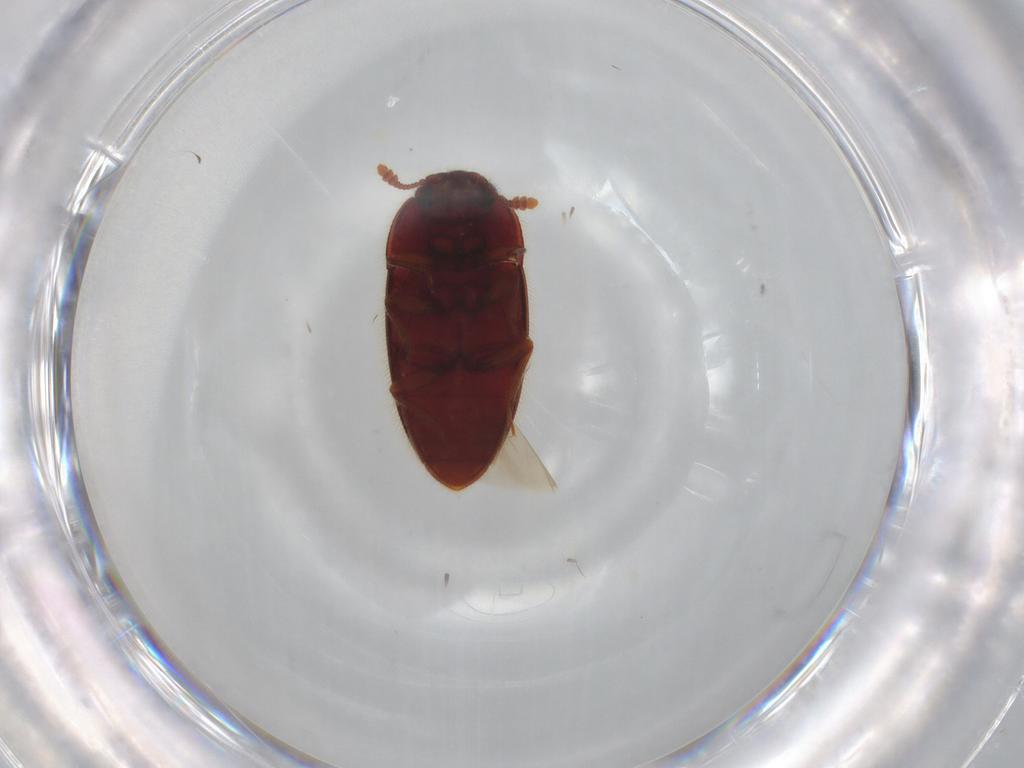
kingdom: Animalia
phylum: Arthropoda
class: Insecta
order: Coleoptera
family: Biphyllidae
